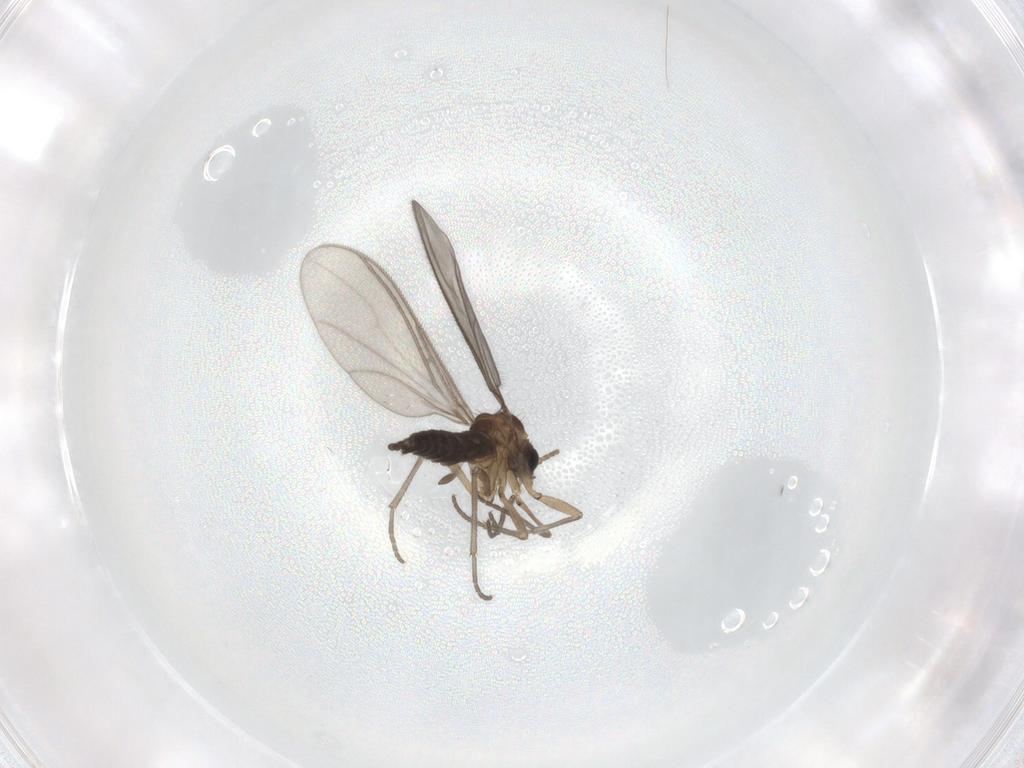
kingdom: Animalia
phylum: Arthropoda
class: Insecta
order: Diptera
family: Sciaridae
